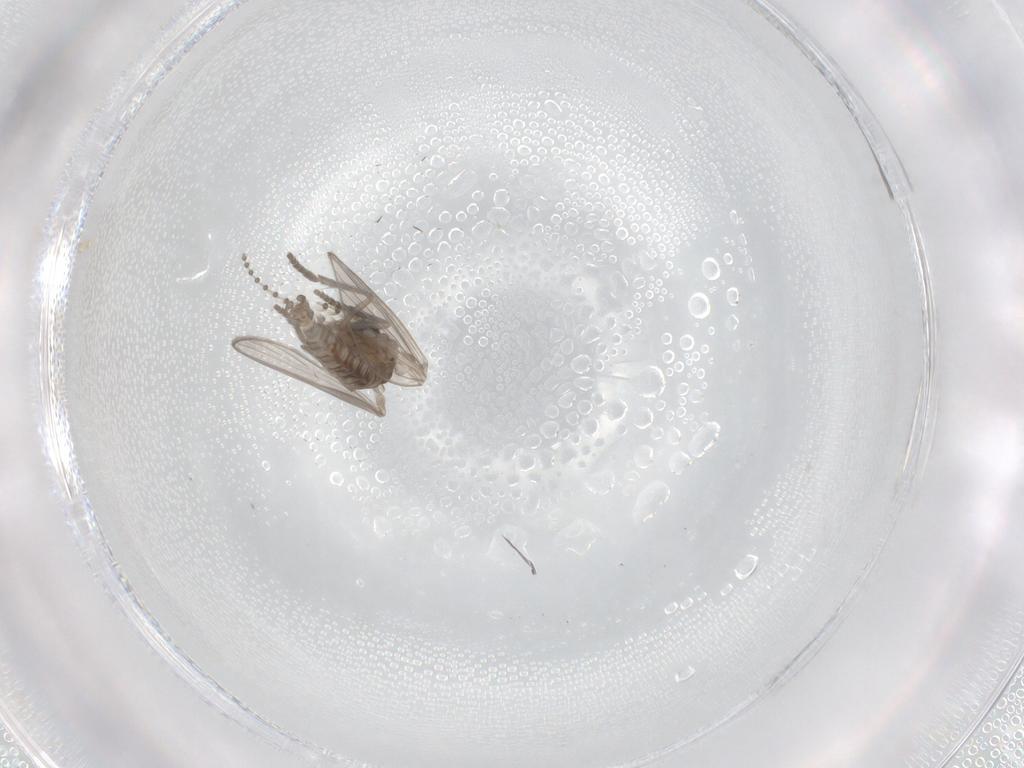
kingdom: Animalia
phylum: Arthropoda
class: Insecta
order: Diptera
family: Psychodidae
